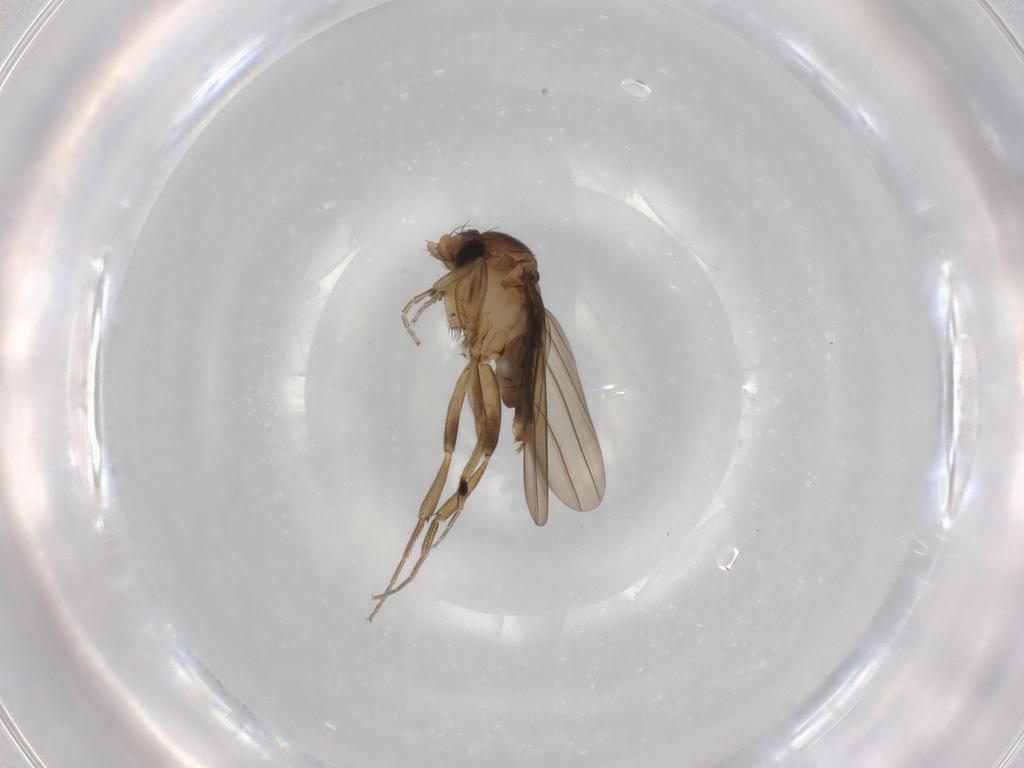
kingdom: Animalia
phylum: Arthropoda
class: Insecta
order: Diptera
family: Phoridae
